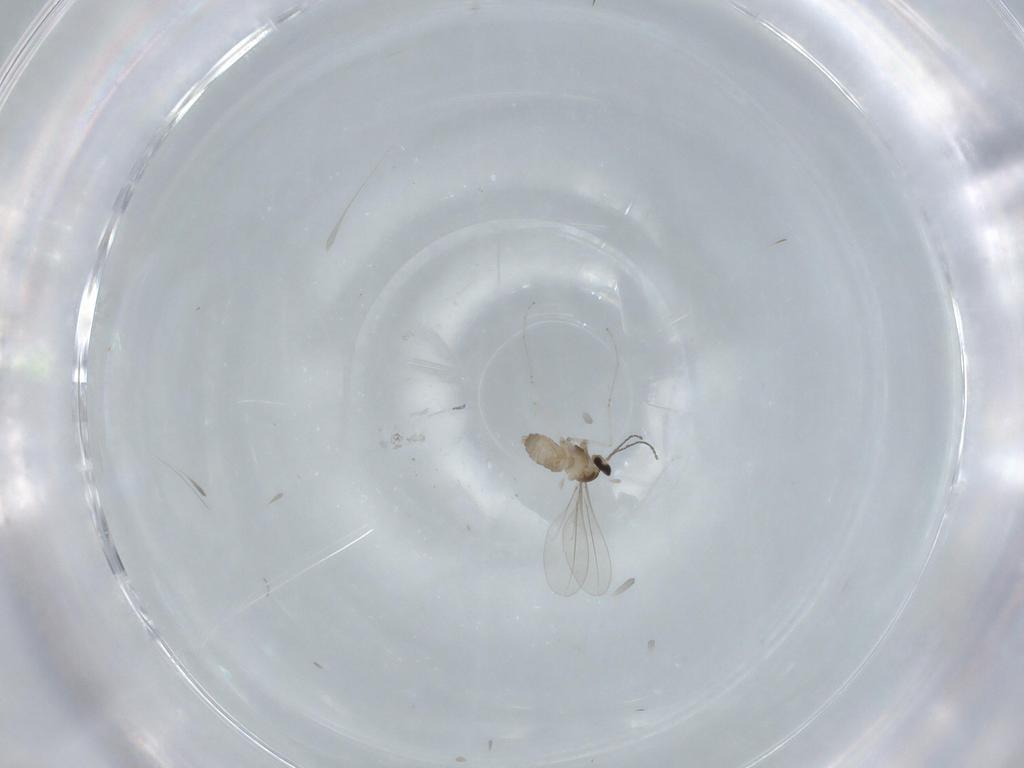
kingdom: Animalia
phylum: Arthropoda
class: Insecta
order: Diptera
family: Cecidomyiidae
